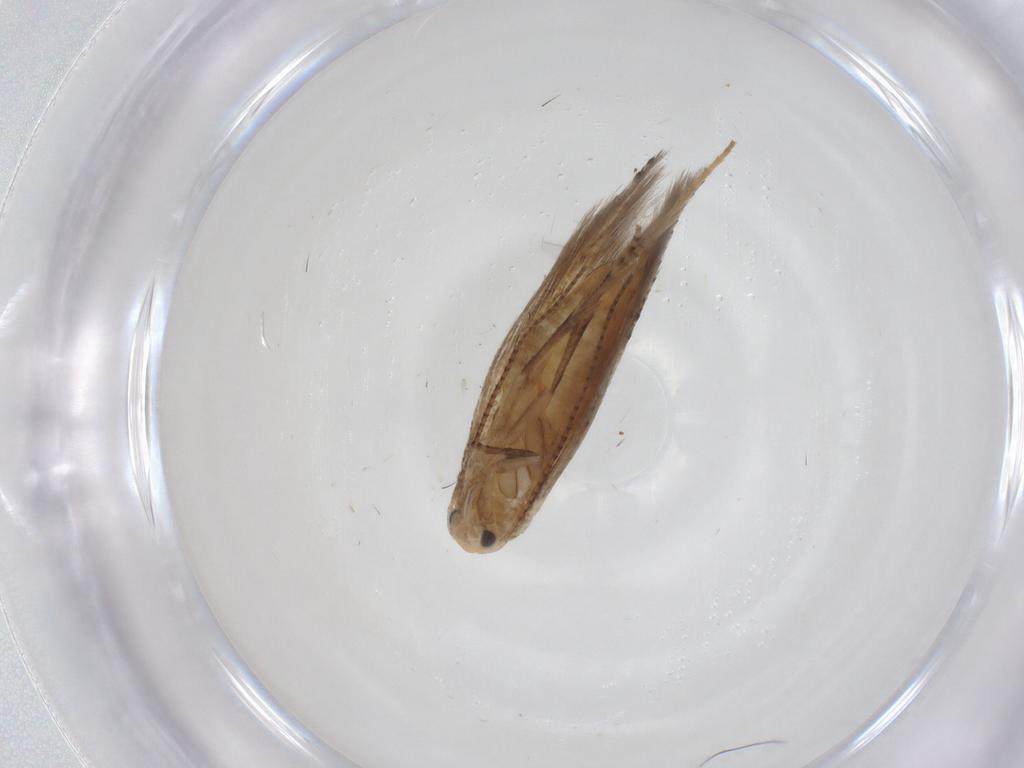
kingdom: Animalia
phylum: Arthropoda
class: Insecta
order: Lepidoptera
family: Bucculatricidae
